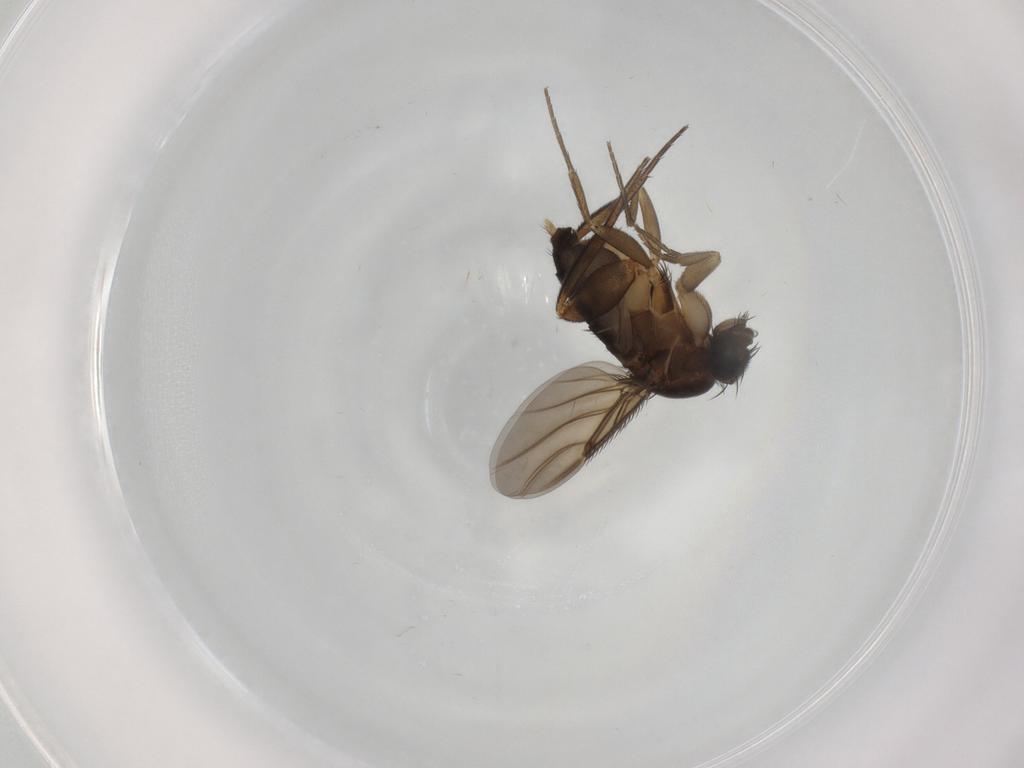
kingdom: Animalia
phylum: Arthropoda
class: Insecta
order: Diptera
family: Phoridae
